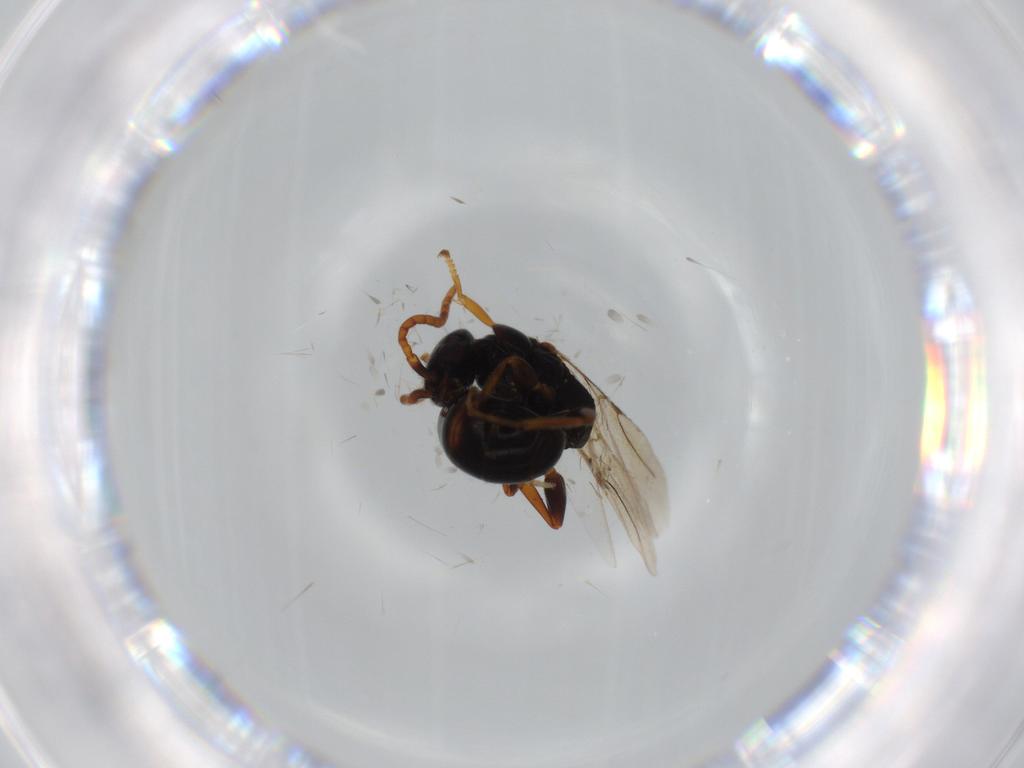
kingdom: Animalia
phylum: Arthropoda
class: Insecta
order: Hymenoptera
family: Bethylidae
